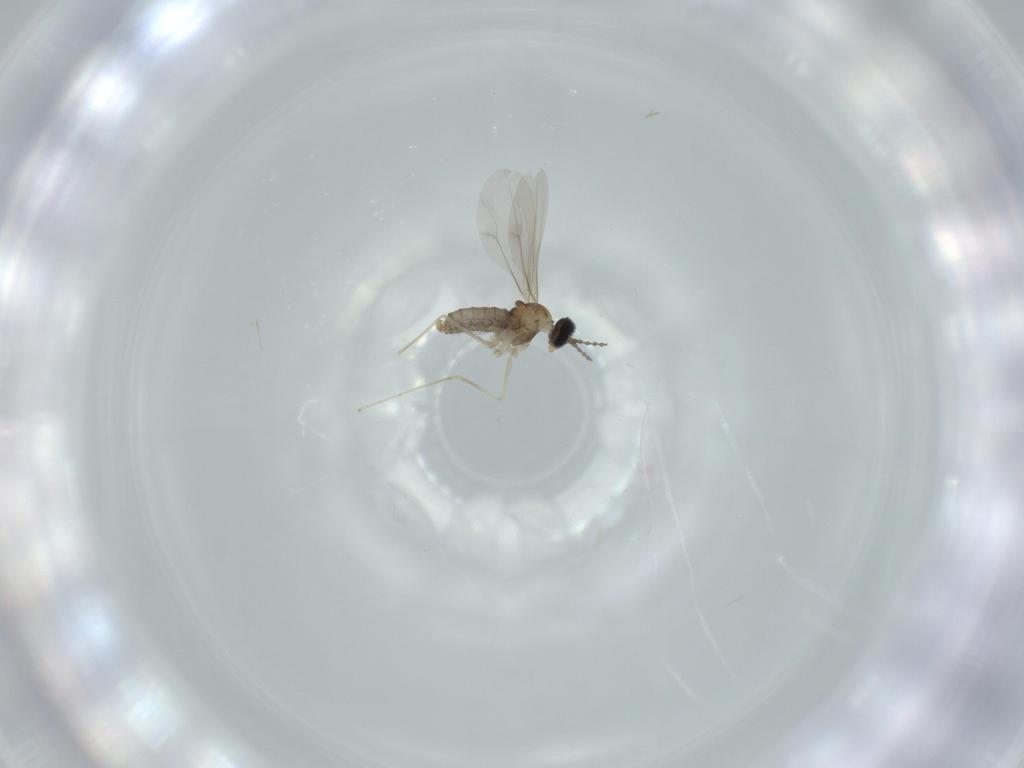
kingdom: Animalia
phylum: Arthropoda
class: Insecta
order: Diptera
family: Cecidomyiidae
